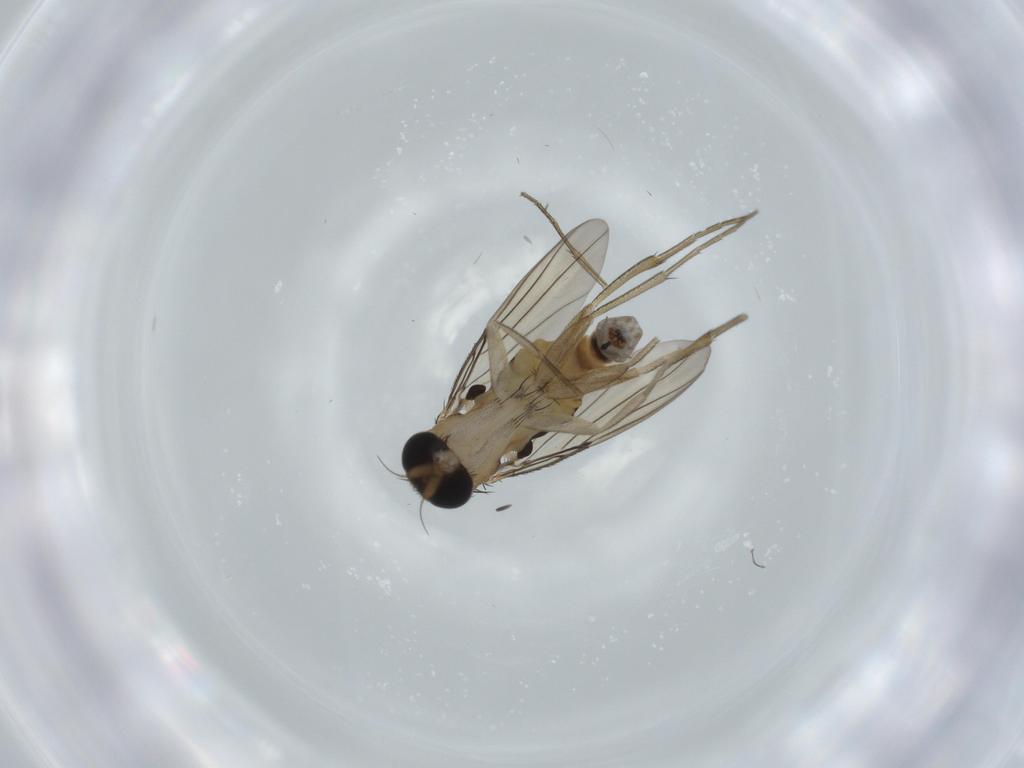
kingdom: Animalia
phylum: Arthropoda
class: Insecta
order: Diptera
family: Phoridae
